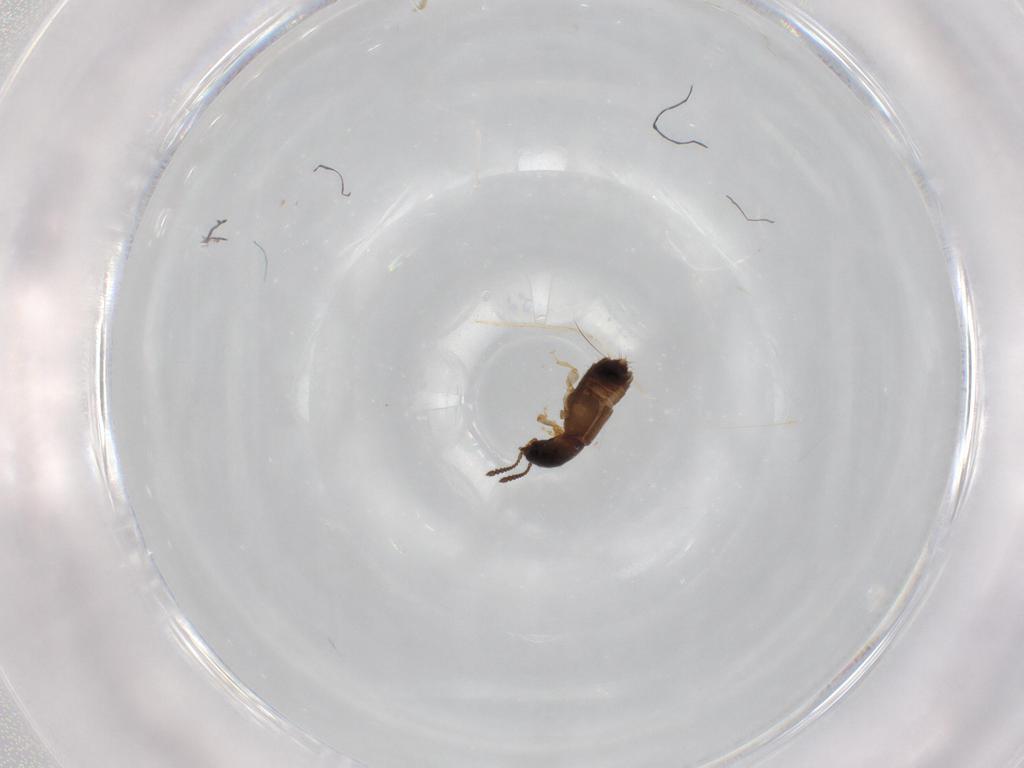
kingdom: Animalia
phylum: Arthropoda
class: Insecta
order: Coleoptera
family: Staphylinidae
